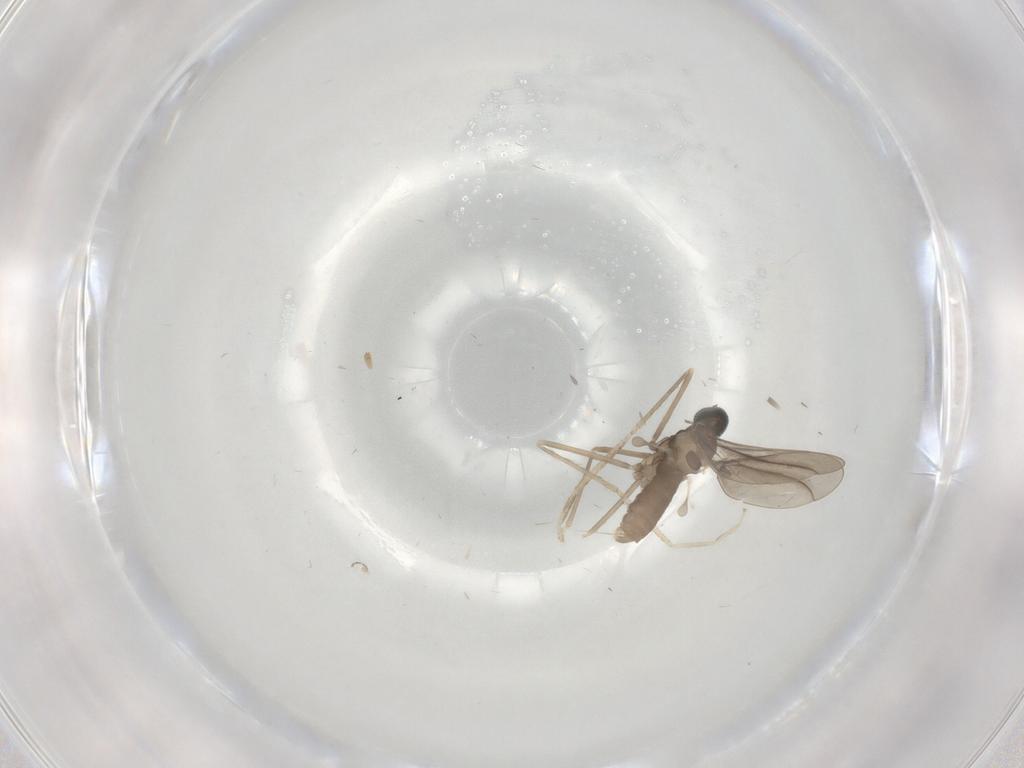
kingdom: Animalia
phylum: Arthropoda
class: Insecta
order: Diptera
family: Cecidomyiidae
